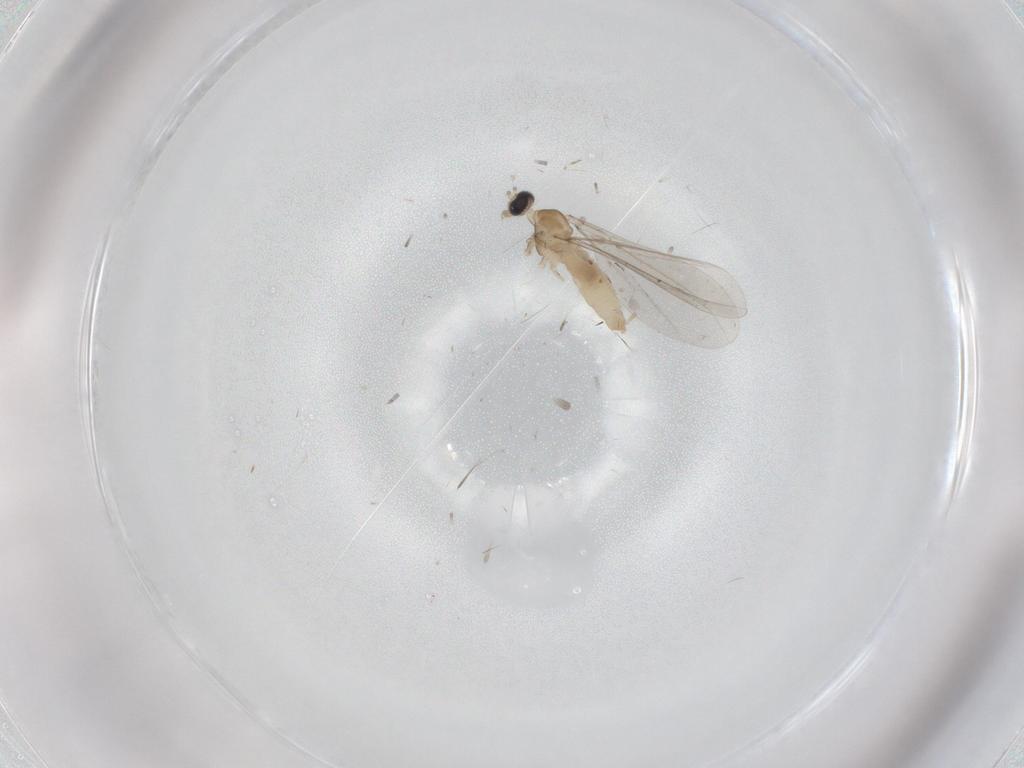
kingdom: Animalia
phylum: Arthropoda
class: Insecta
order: Diptera
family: Cecidomyiidae
